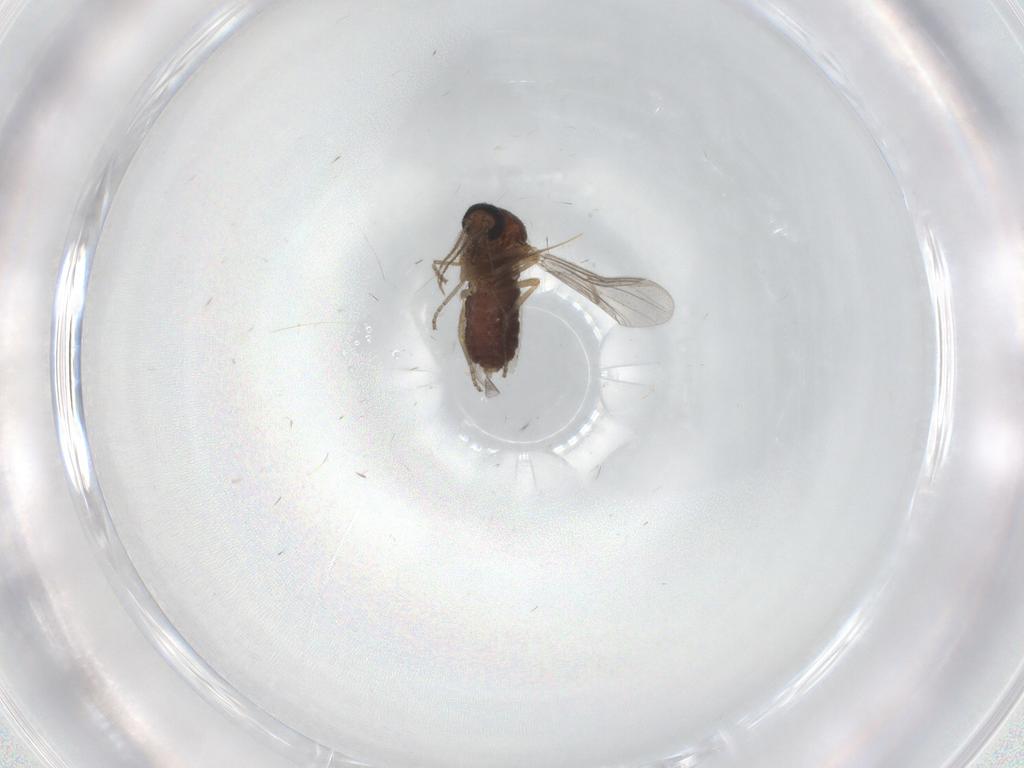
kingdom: Animalia
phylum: Arthropoda
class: Insecta
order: Diptera
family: Ceratopogonidae
